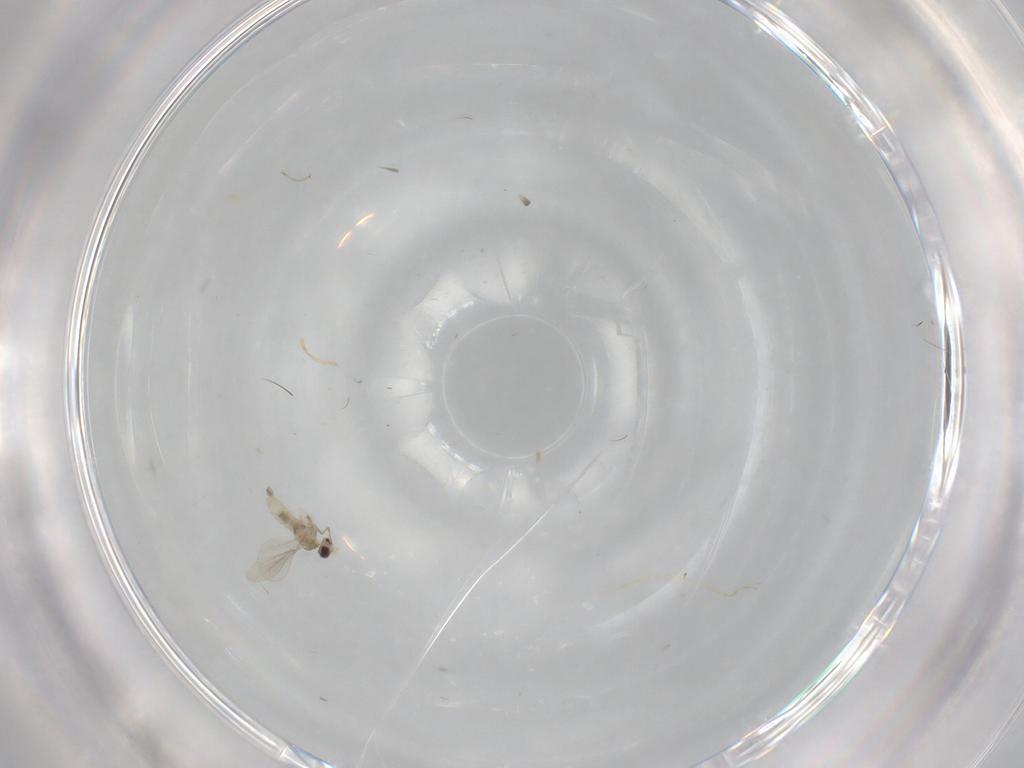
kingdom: Animalia
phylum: Arthropoda
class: Insecta
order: Diptera
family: Cecidomyiidae
